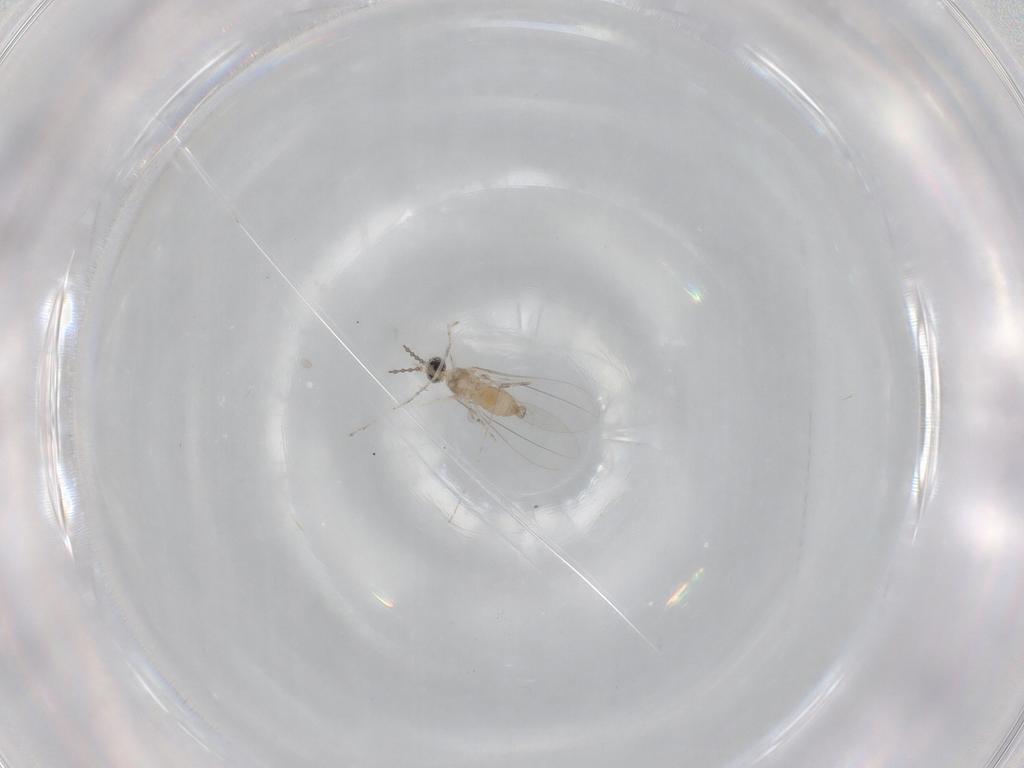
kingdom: Animalia
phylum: Arthropoda
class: Insecta
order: Diptera
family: Cecidomyiidae
